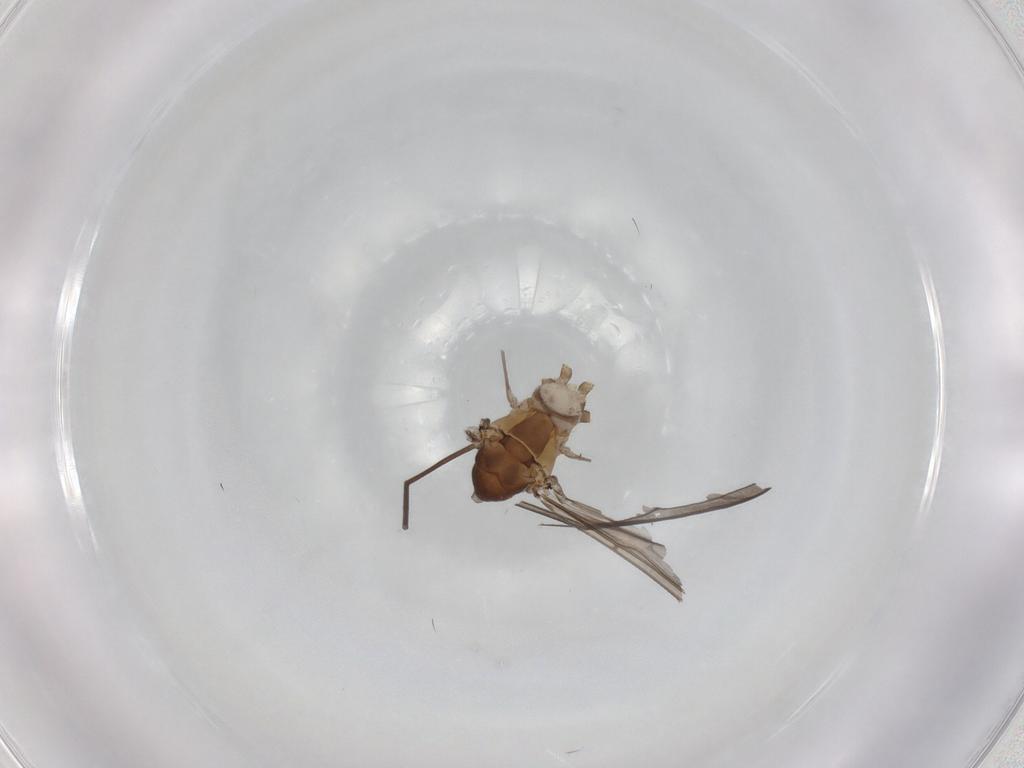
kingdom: Animalia
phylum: Arthropoda
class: Insecta
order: Diptera
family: Limoniidae
